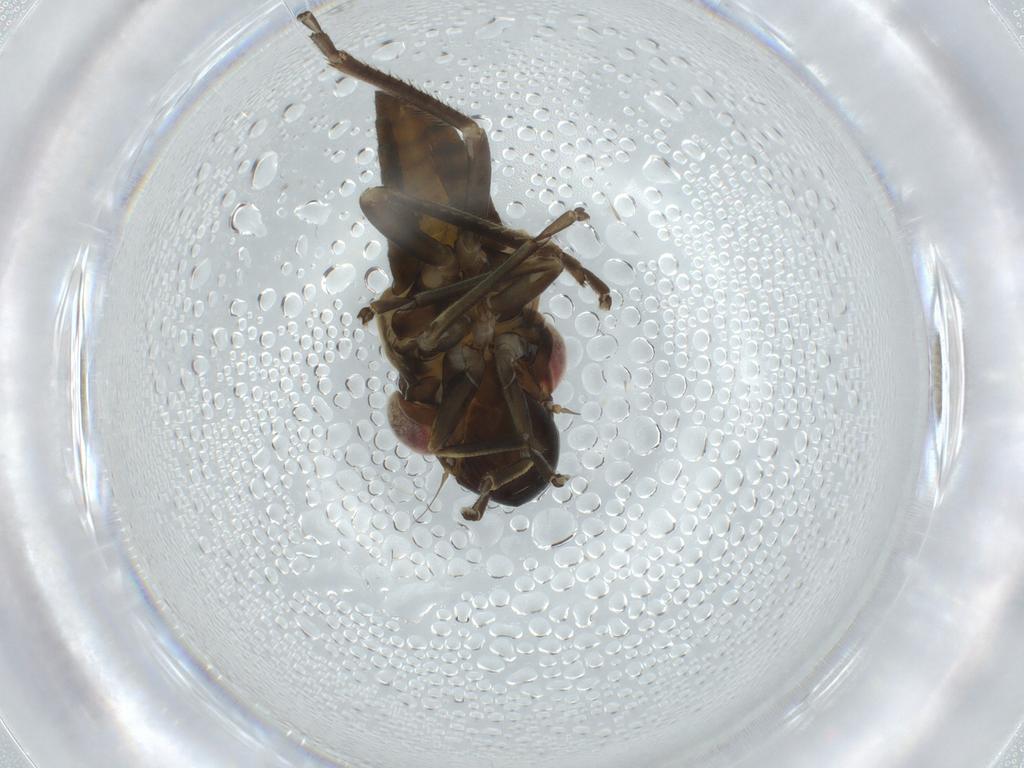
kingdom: Animalia
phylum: Arthropoda
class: Insecta
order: Hemiptera
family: Cicadellidae
